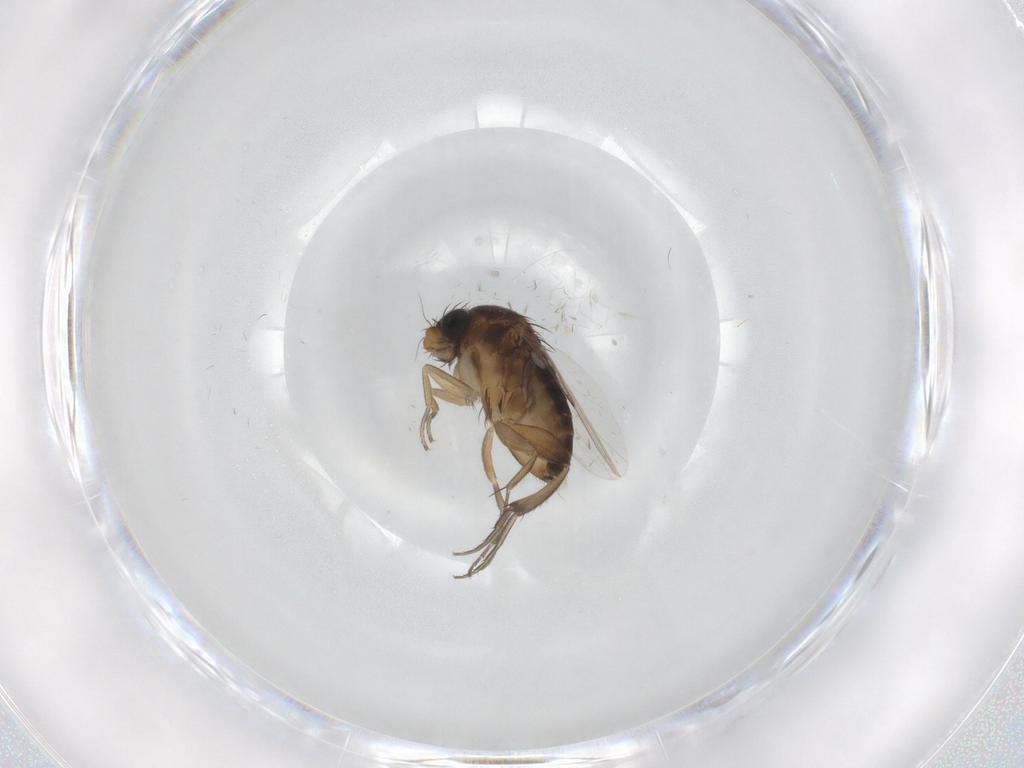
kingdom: Animalia
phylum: Arthropoda
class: Insecta
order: Diptera
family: Phoridae
